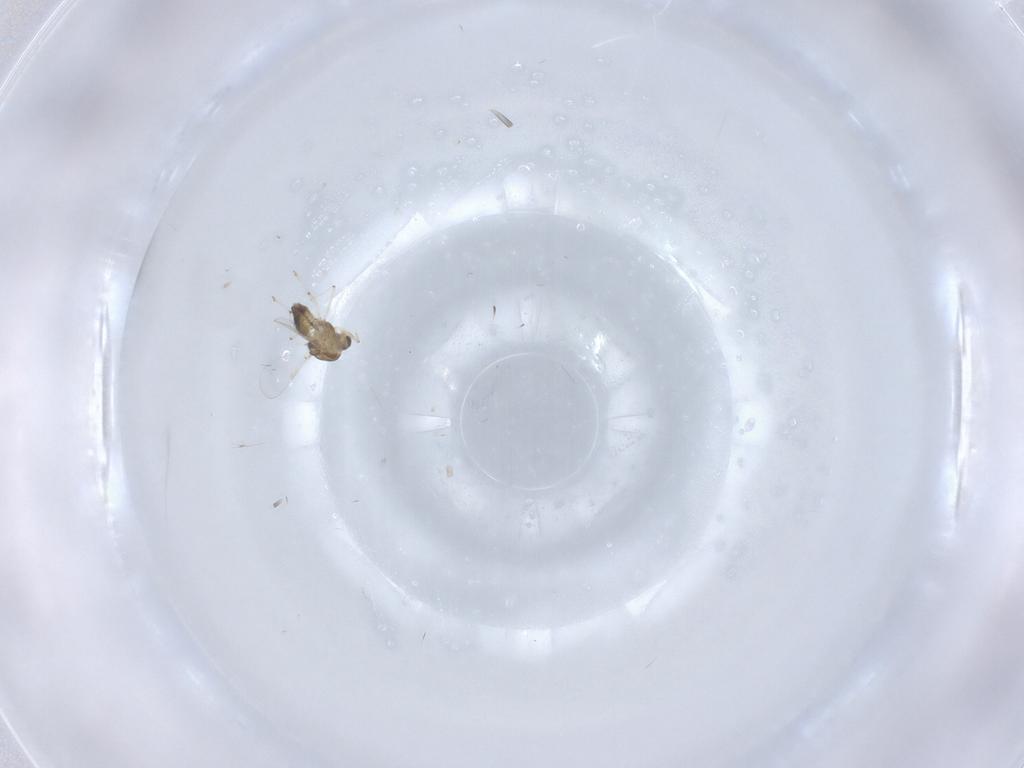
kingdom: Animalia
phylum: Arthropoda
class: Insecta
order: Diptera
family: Chironomidae
